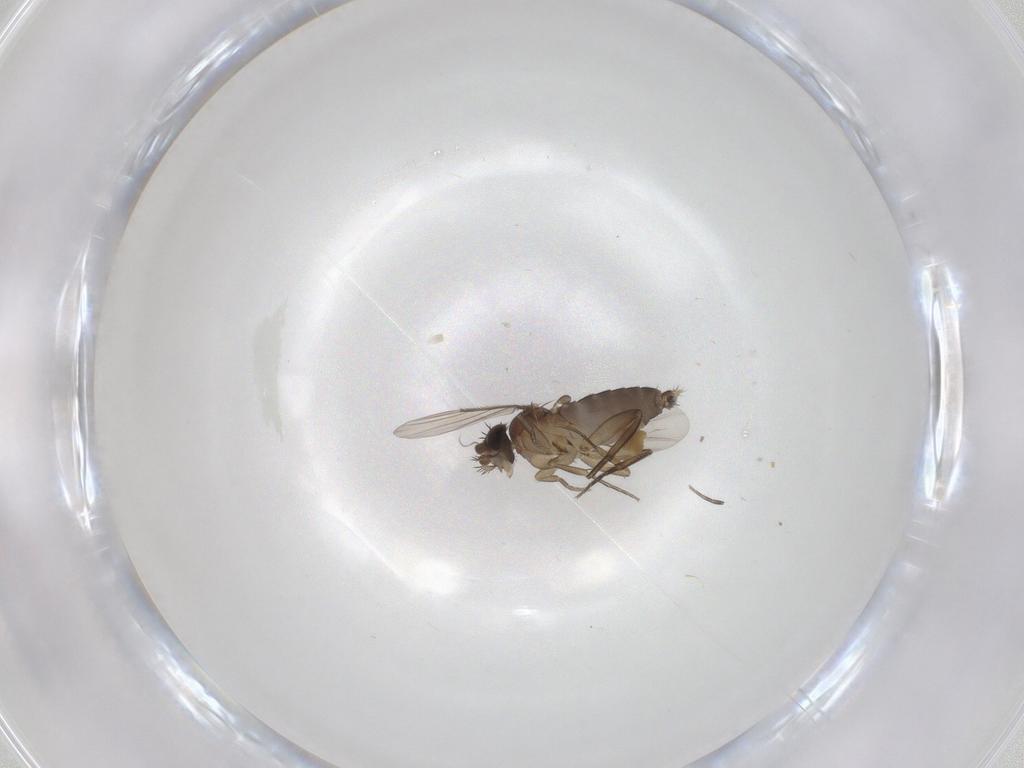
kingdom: Animalia
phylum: Arthropoda
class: Insecta
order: Diptera
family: Phoridae
